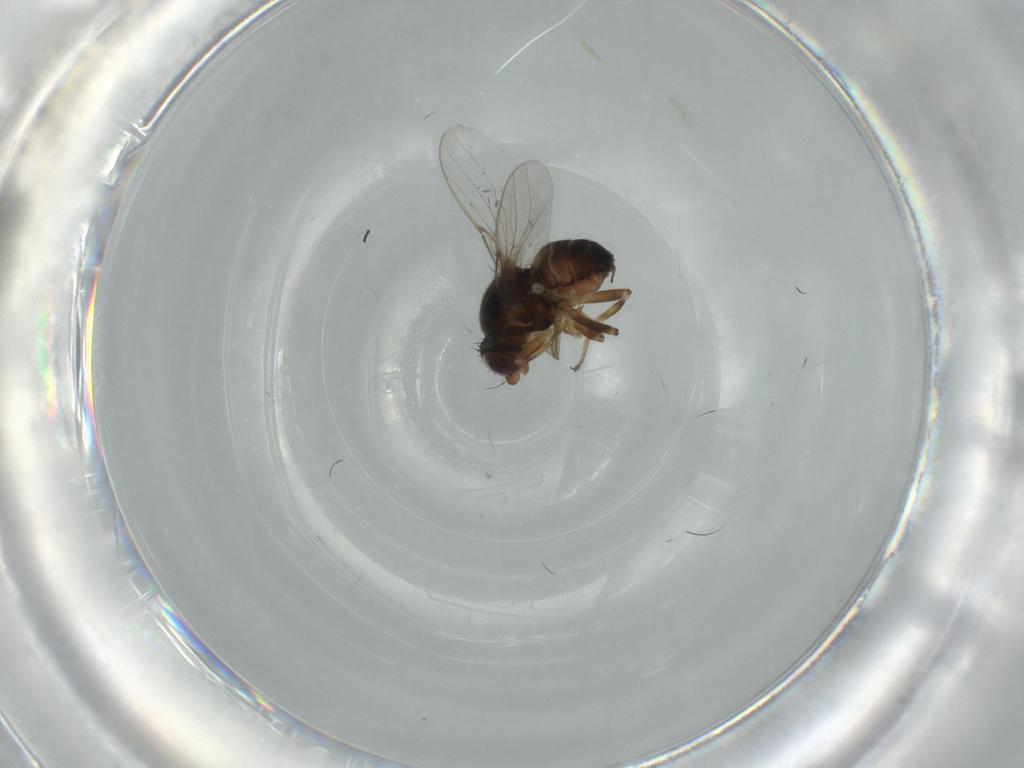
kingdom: Animalia
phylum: Arthropoda
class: Insecta
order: Diptera
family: Chloropidae
